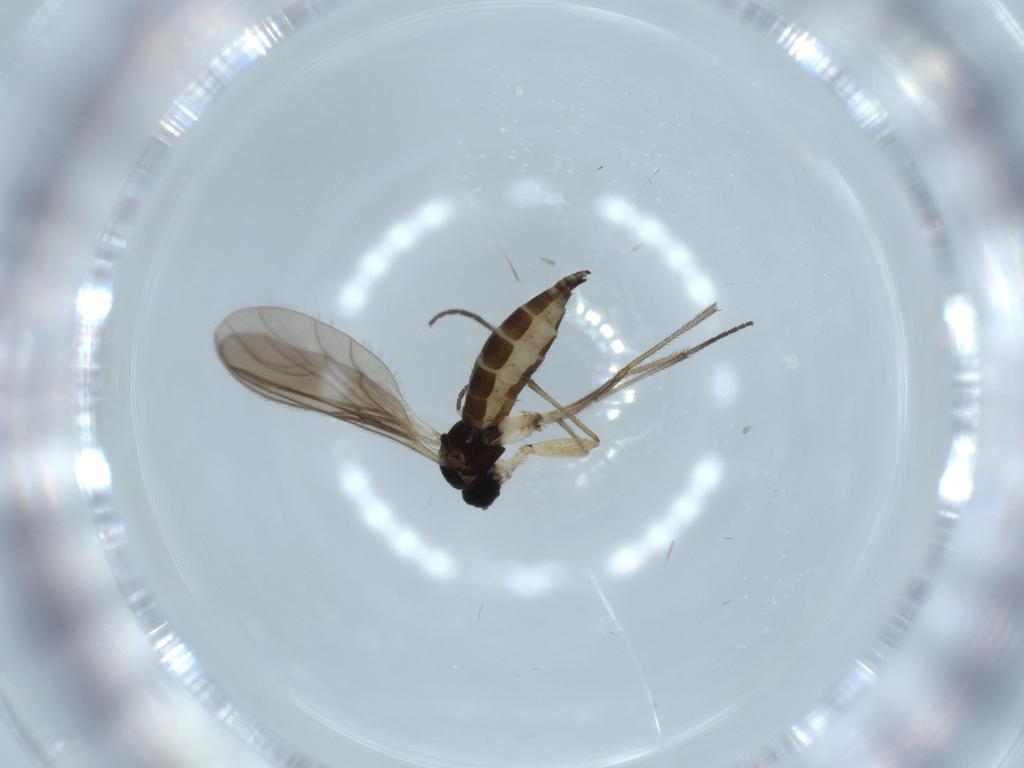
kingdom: Animalia
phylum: Arthropoda
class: Insecta
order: Diptera
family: Sciaridae
